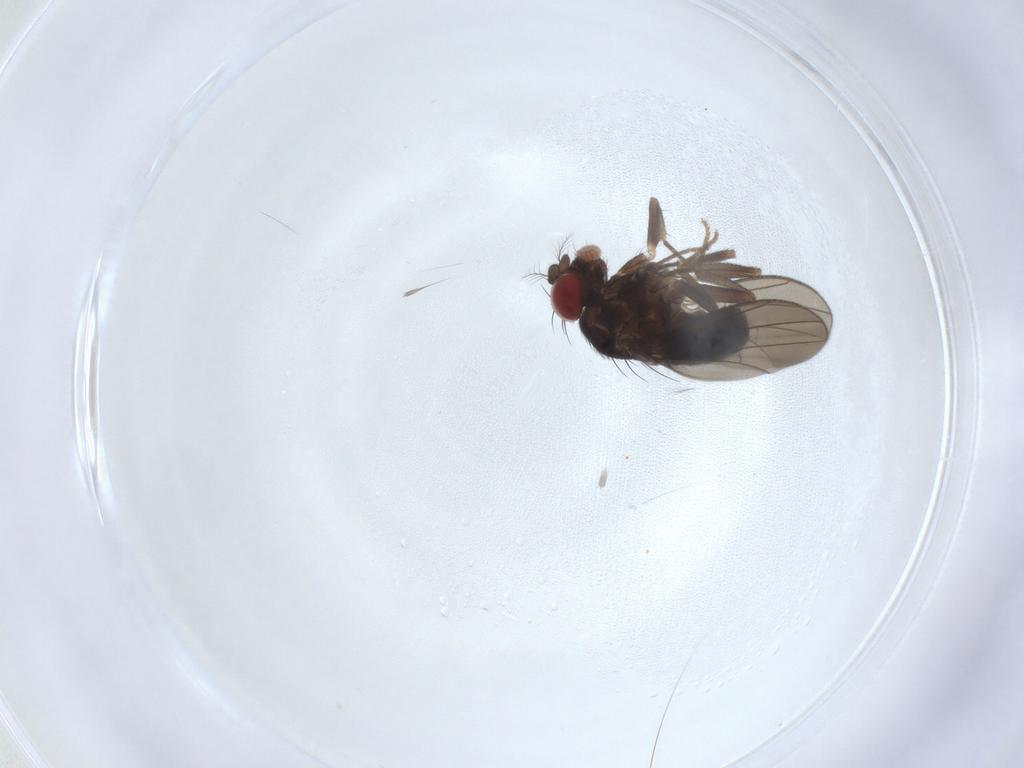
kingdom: Animalia
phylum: Arthropoda
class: Insecta
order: Diptera
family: Drosophilidae
